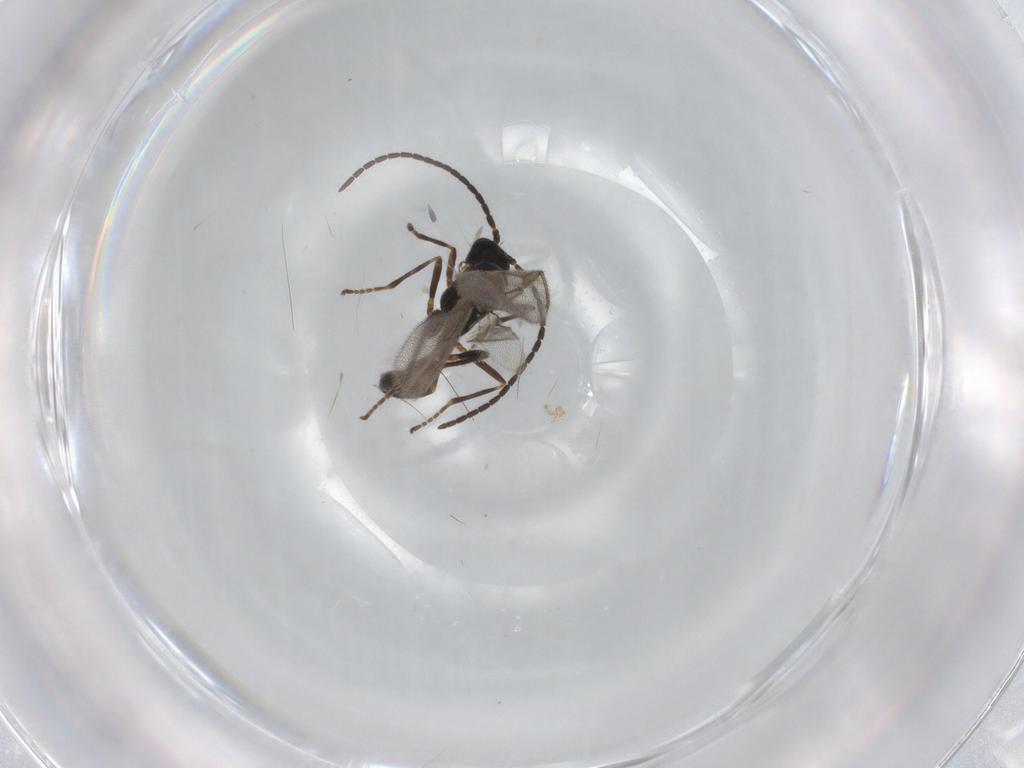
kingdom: Animalia
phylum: Arthropoda
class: Insecta
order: Hymenoptera
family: Braconidae
